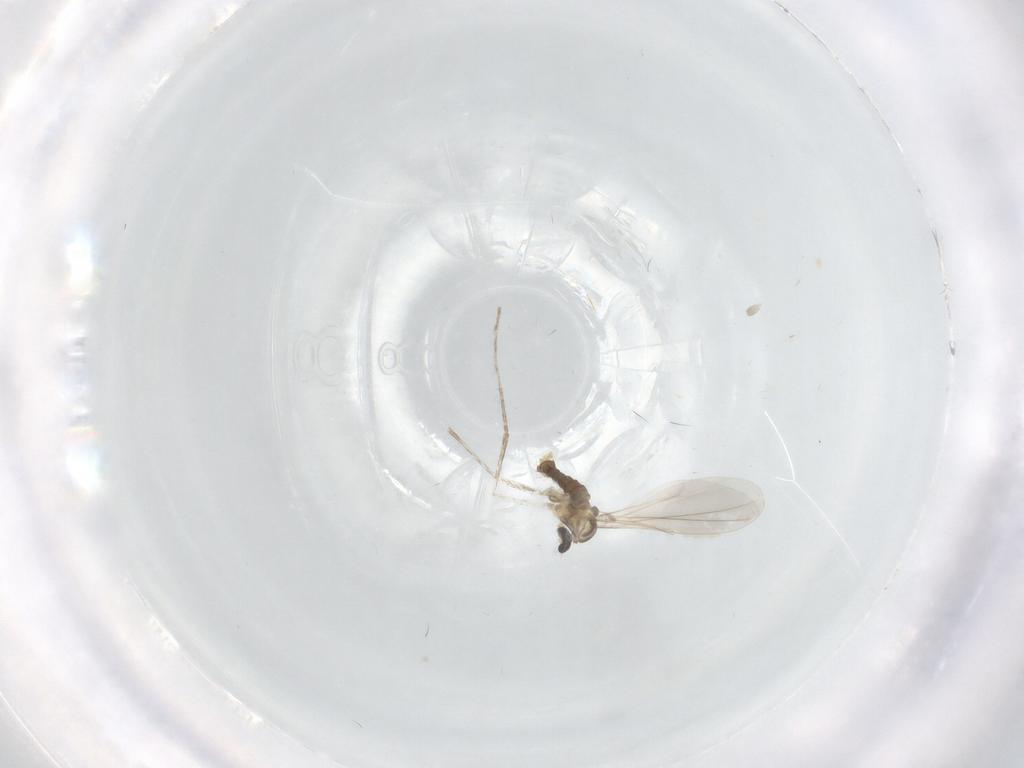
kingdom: Animalia
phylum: Arthropoda
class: Insecta
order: Diptera
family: Cecidomyiidae
